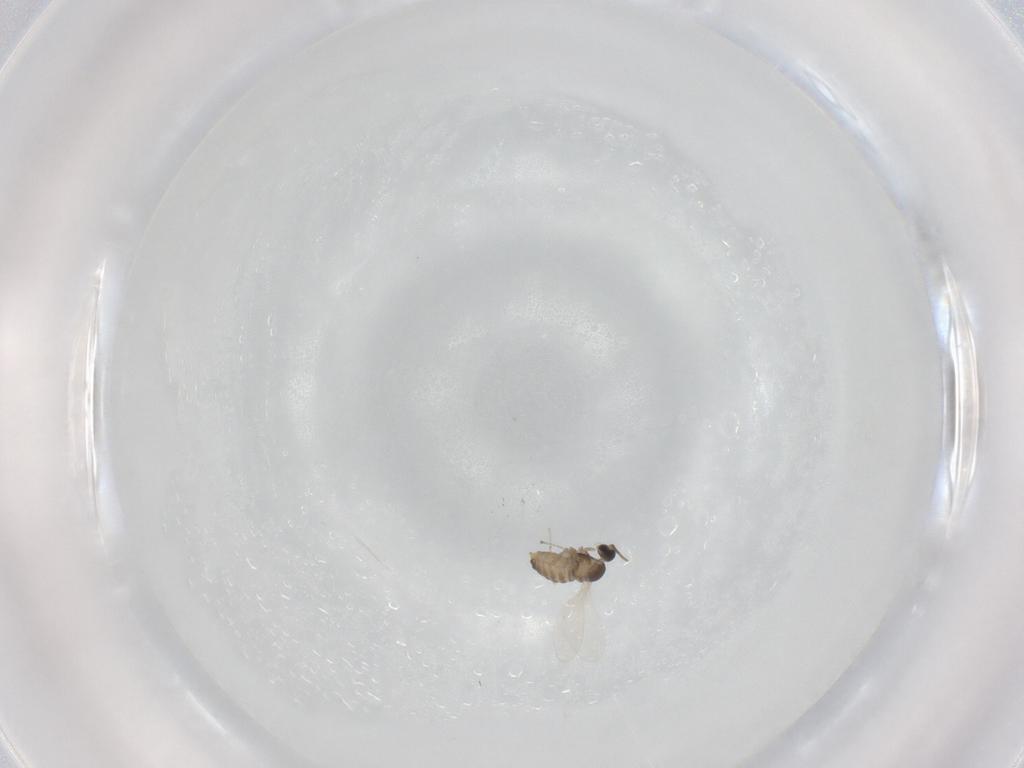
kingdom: Animalia
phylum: Arthropoda
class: Insecta
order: Diptera
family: Cecidomyiidae
